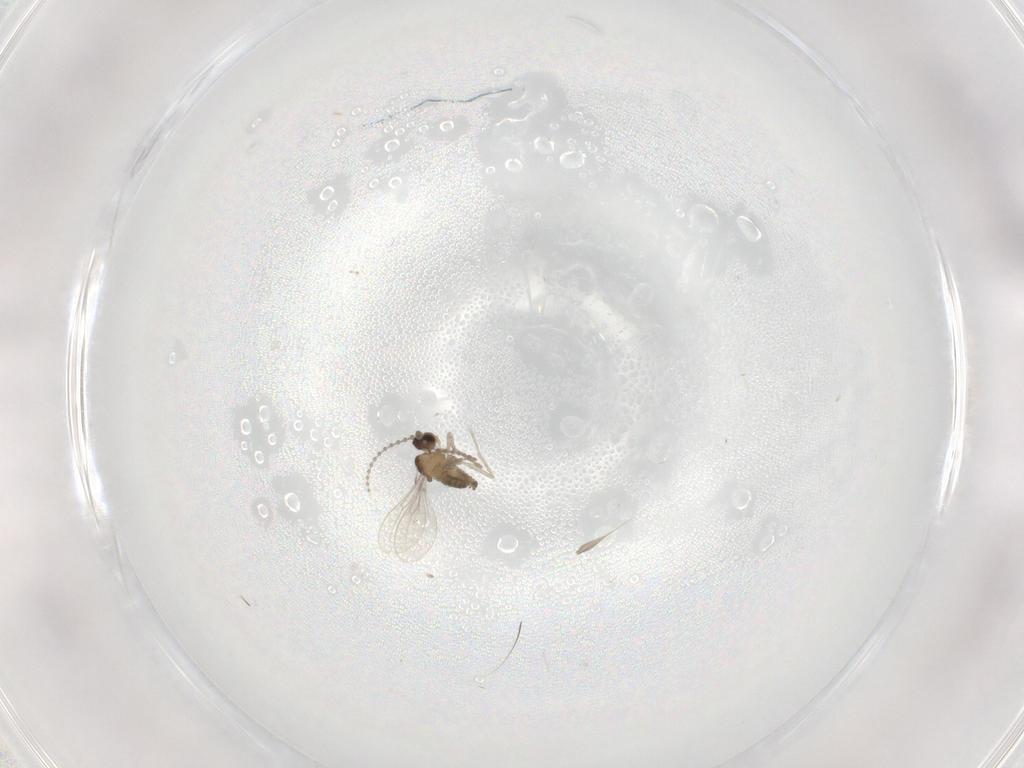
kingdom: Animalia
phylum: Arthropoda
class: Insecta
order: Diptera
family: Cecidomyiidae
